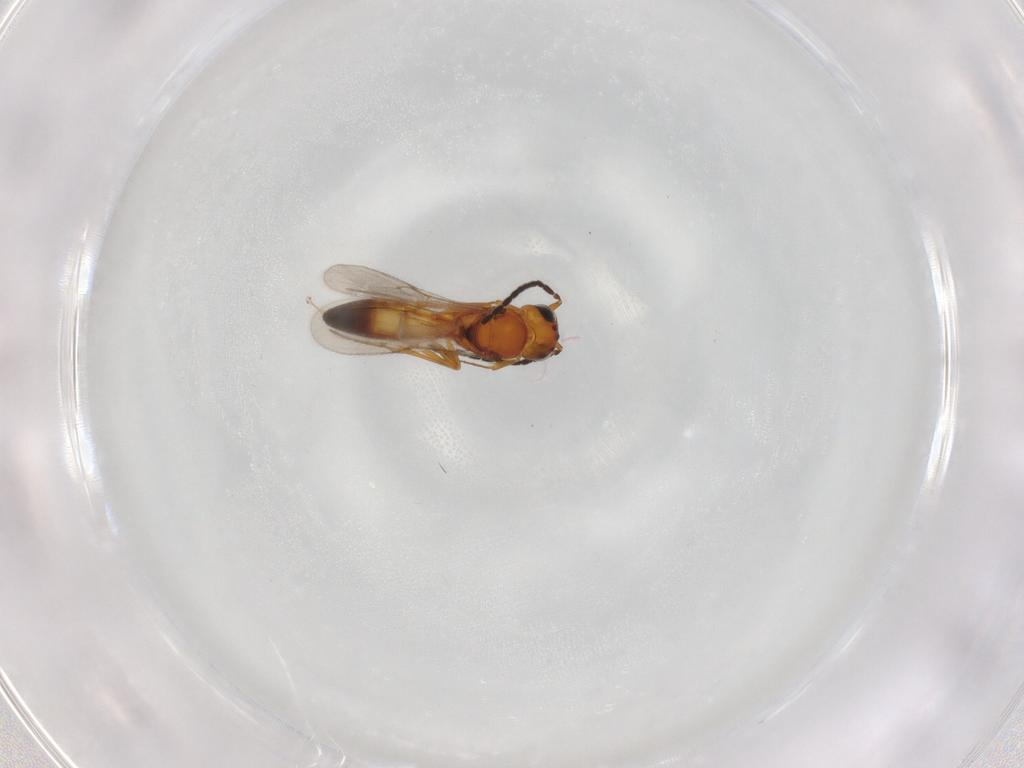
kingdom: Animalia
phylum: Arthropoda
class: Insecta
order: Hymenoptera
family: Scelionidae
